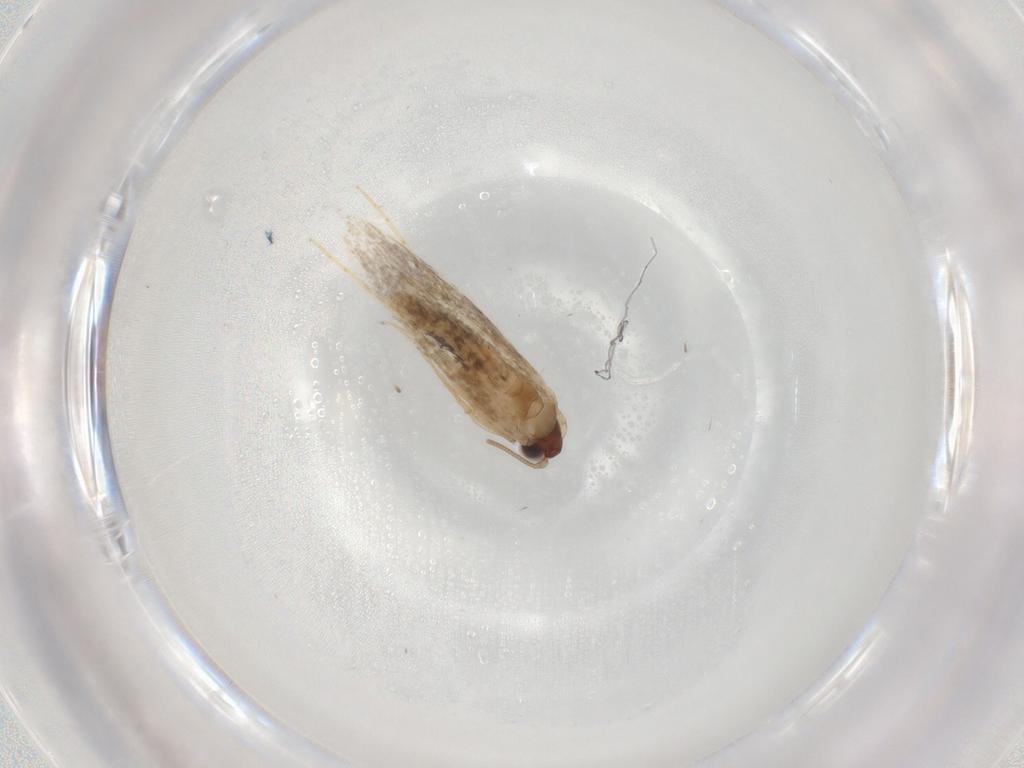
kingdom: Animalia
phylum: Arthropoda
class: Insecta
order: Lepidoptera
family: Tineidae
